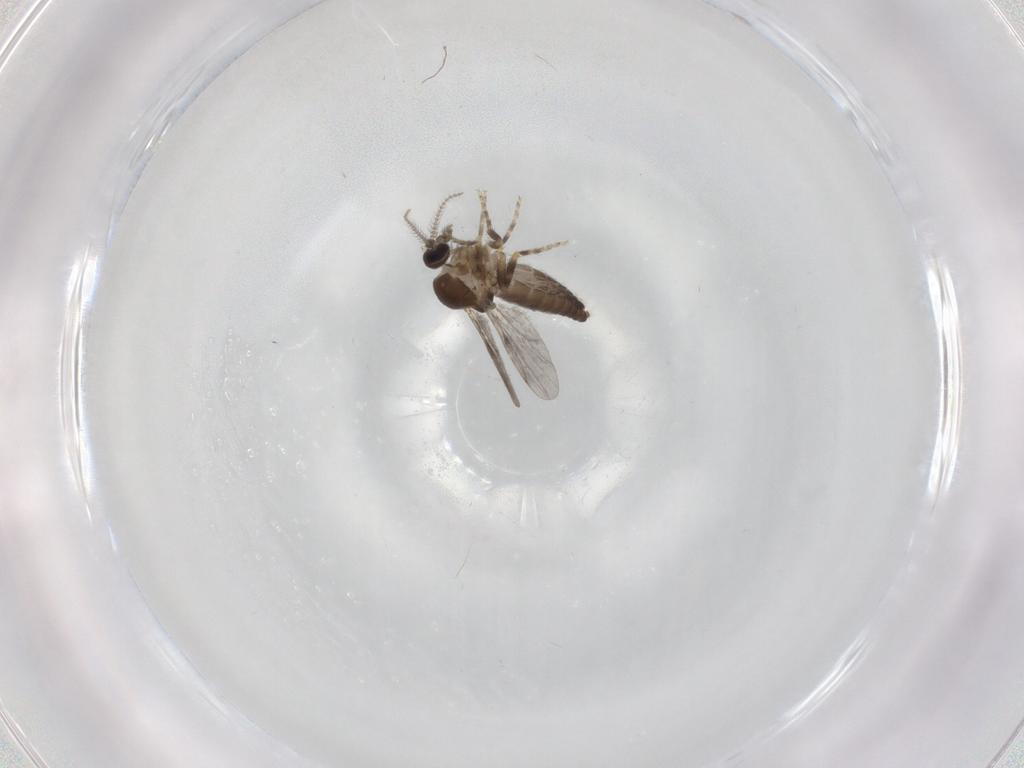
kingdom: Animalia
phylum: Arthropoda
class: Insecta
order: Diptera
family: Ceratopogonidae
